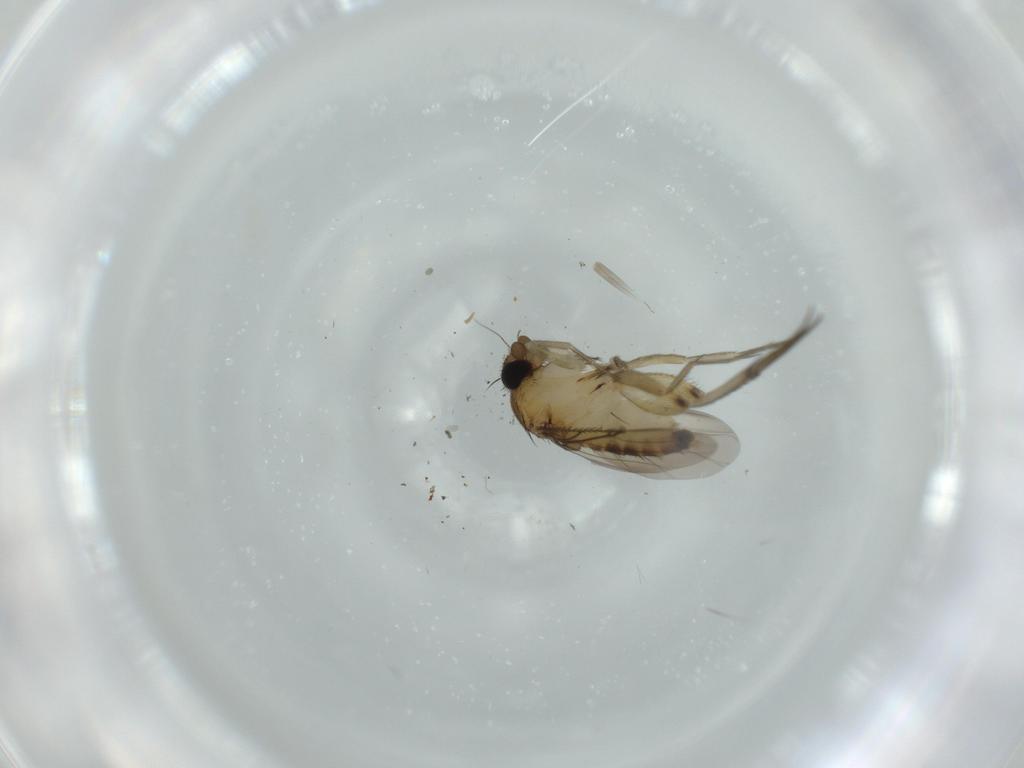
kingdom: Animalia
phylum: Arthropoda
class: Insecta
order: Diptera
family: Phoridae
